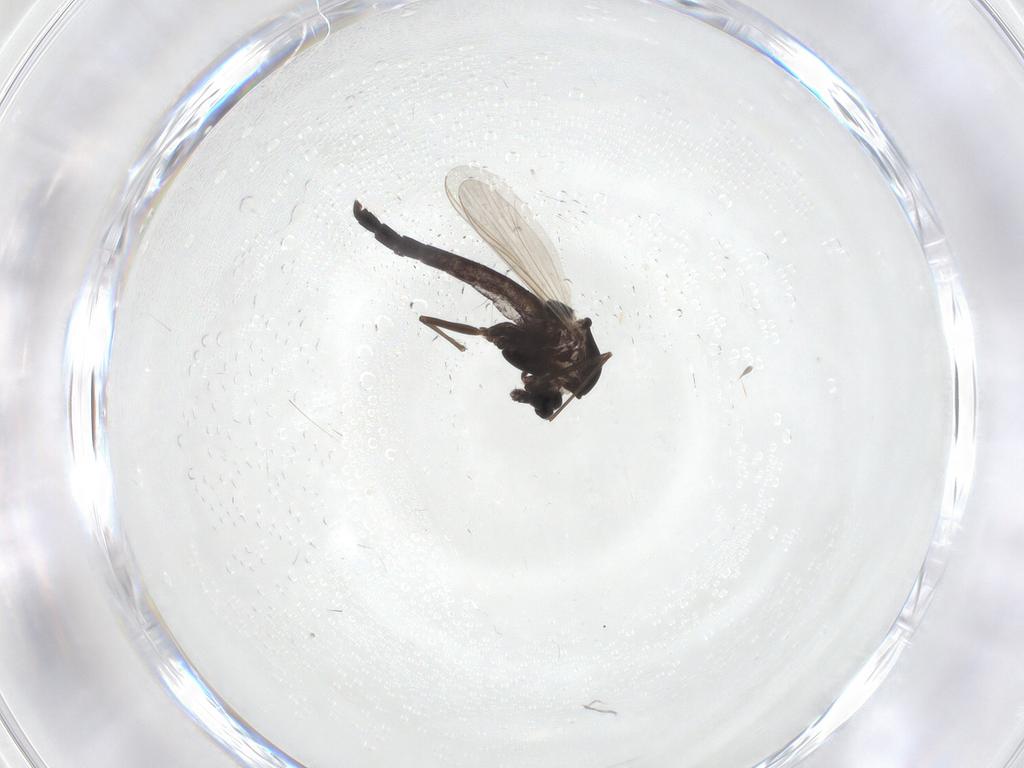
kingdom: Animalia
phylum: Arthropoda
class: Insecta
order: Diptera
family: Chironomidae
